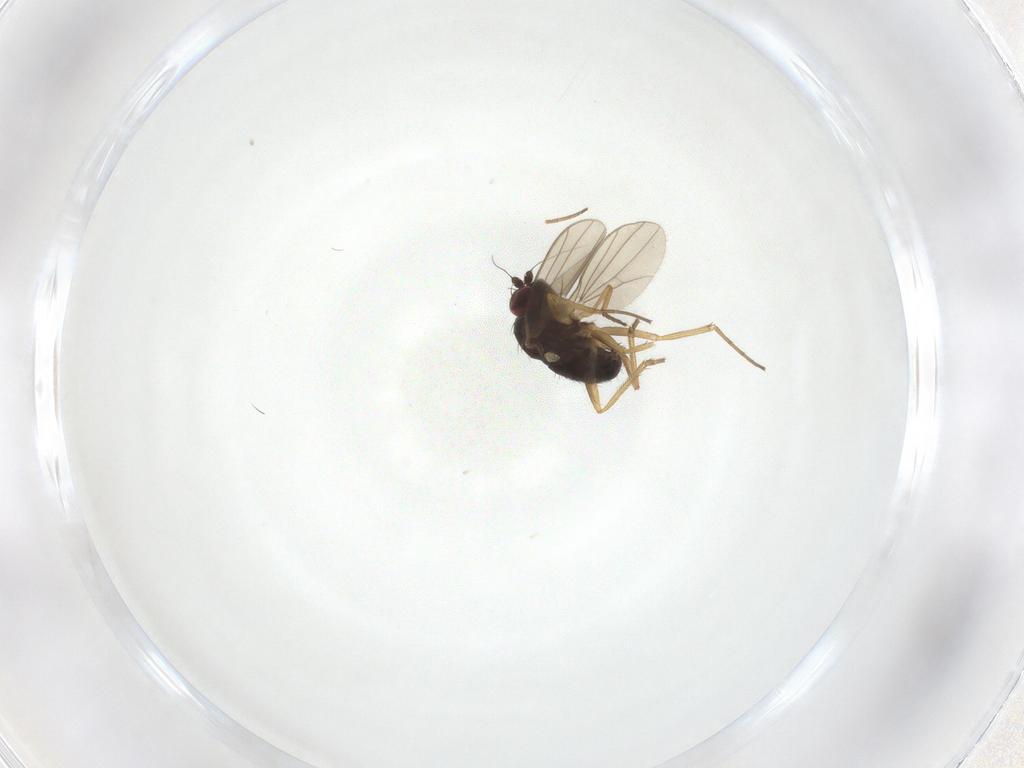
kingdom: Animalia
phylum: Arthropoda
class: Insecta
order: Diptera
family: Dolichopodidae
